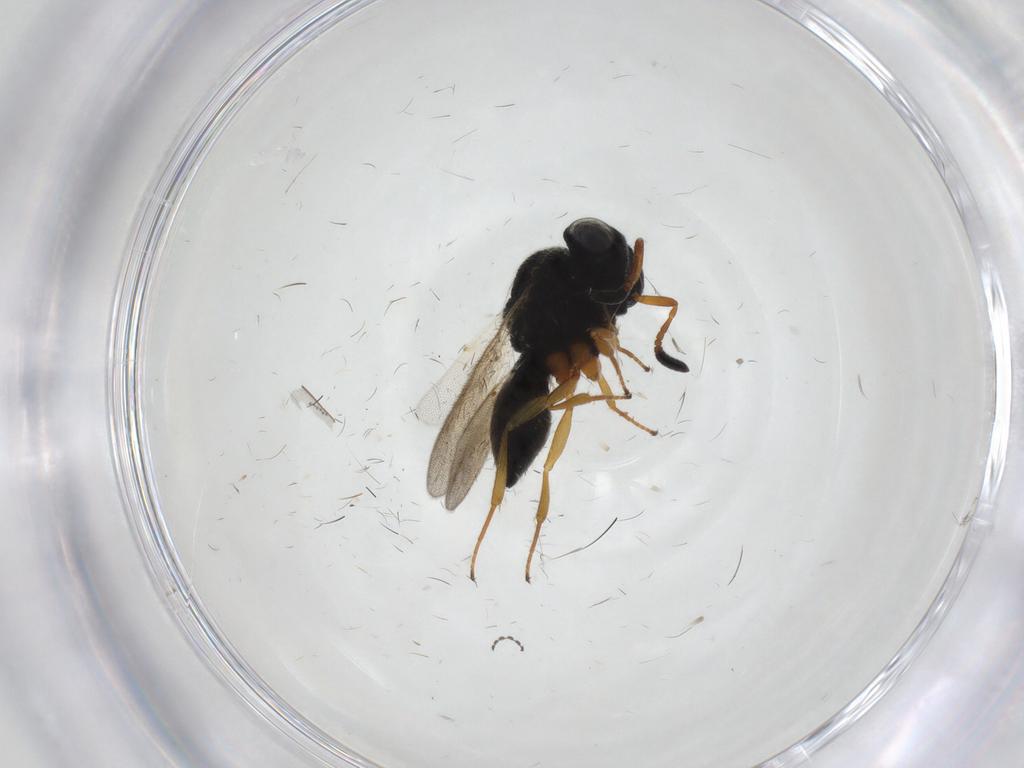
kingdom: Animalia
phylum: Arthropoda
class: Insecta
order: Hymenoptera
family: Scelionidae
